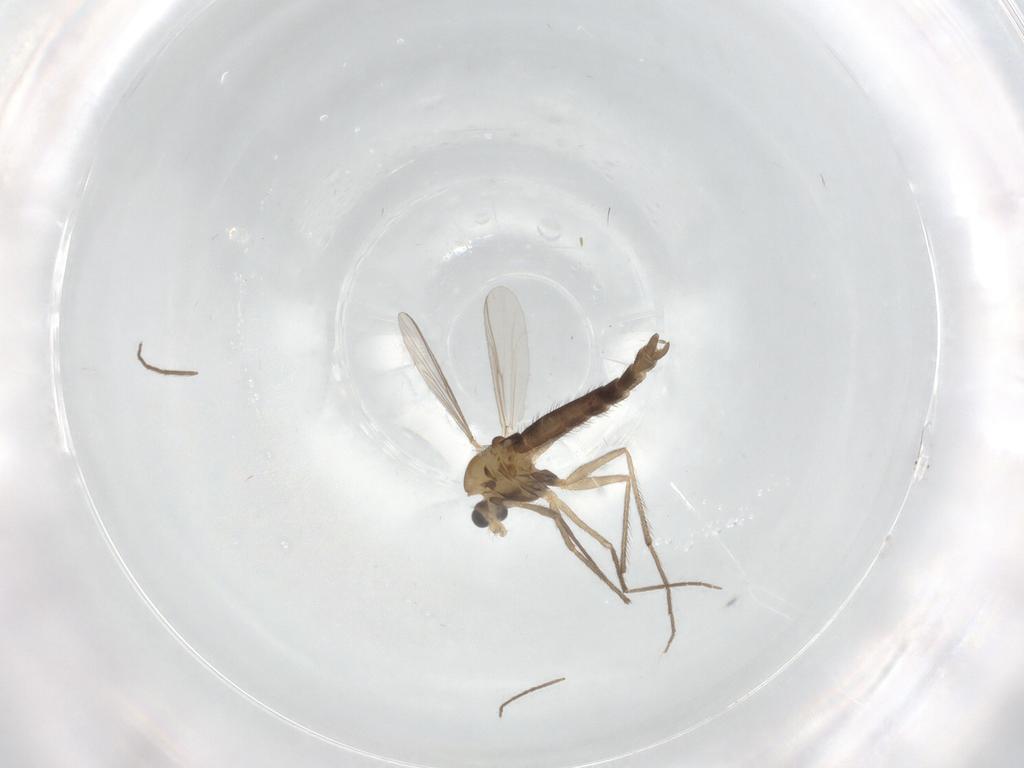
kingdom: Animalia
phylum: Arthropoda
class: Insecta
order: Diptera
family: Chironomidae
